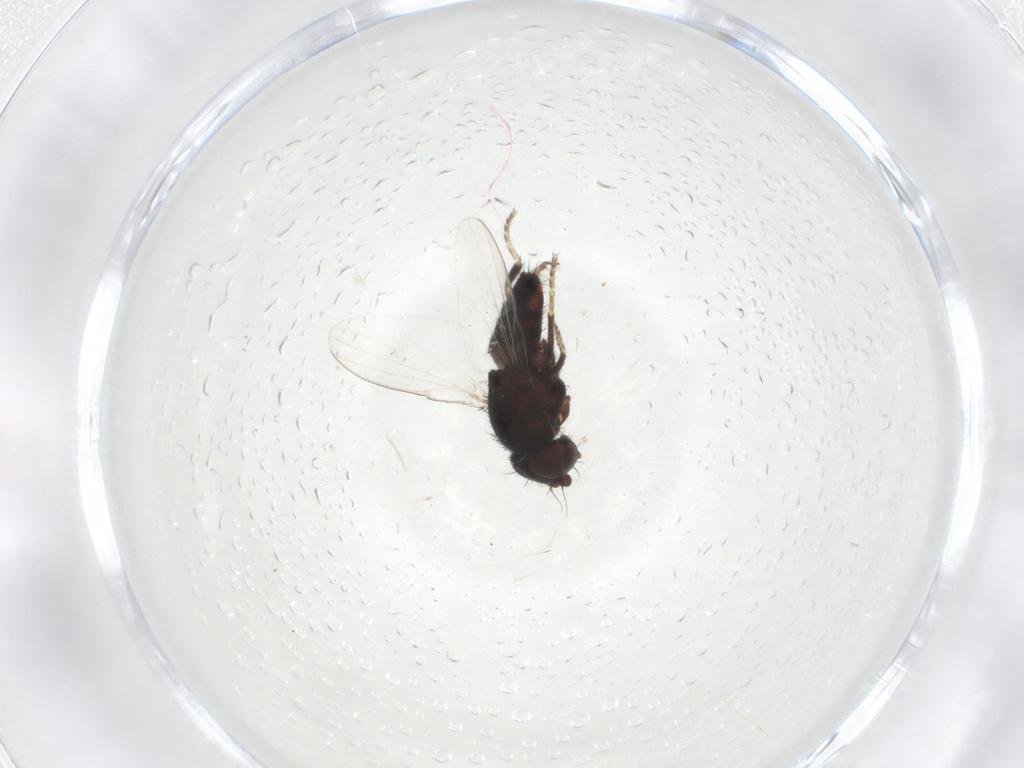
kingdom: Animalia
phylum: Arthropoda
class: Insecta
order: Diptera
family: Chloropidae
